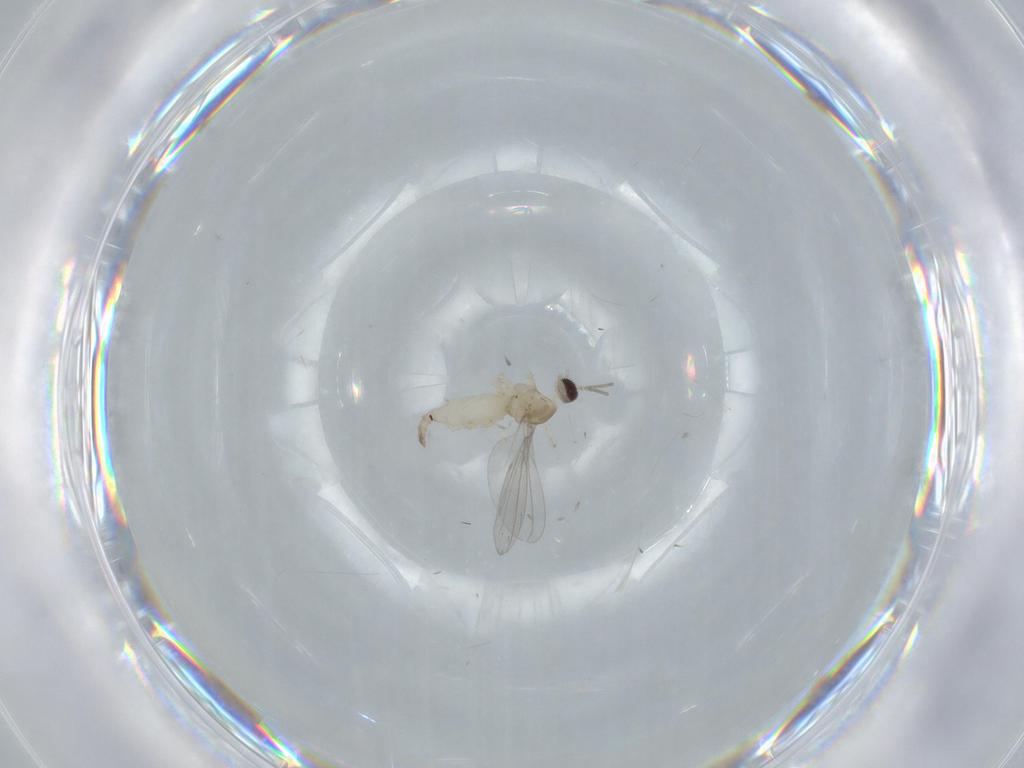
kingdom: Animalia
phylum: Arthropoda
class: Insecta
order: Diptera
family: Cecidomyiidae
